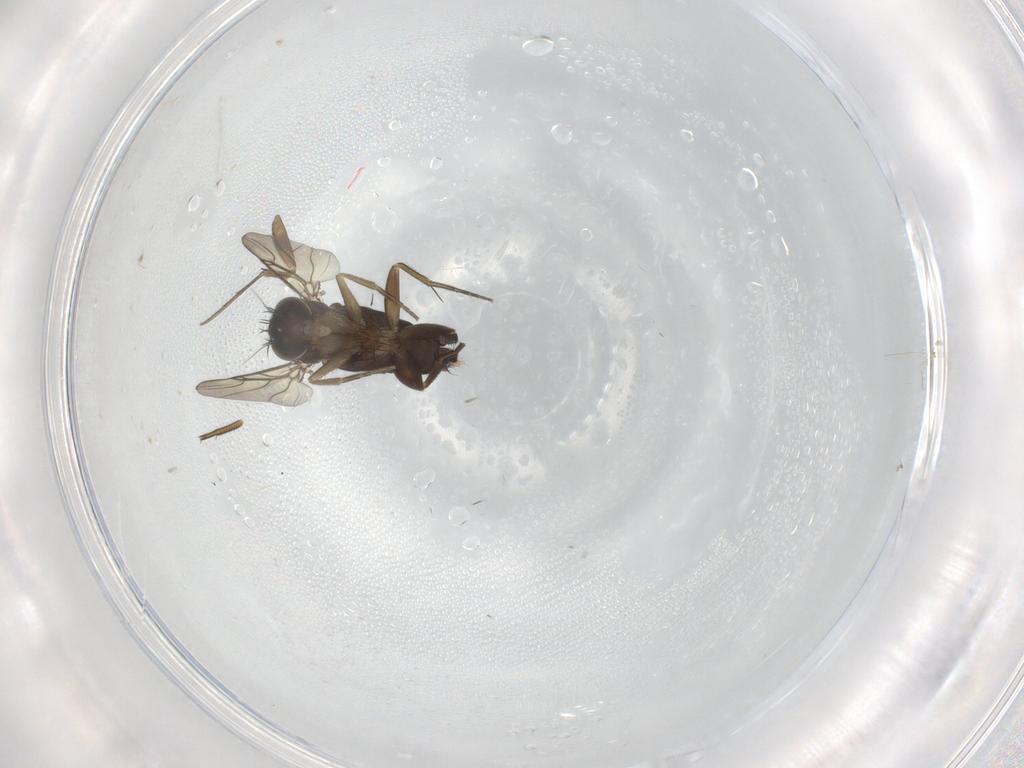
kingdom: Animalia
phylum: Arthropoda
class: Insecta
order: Diptera
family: Phoridae
